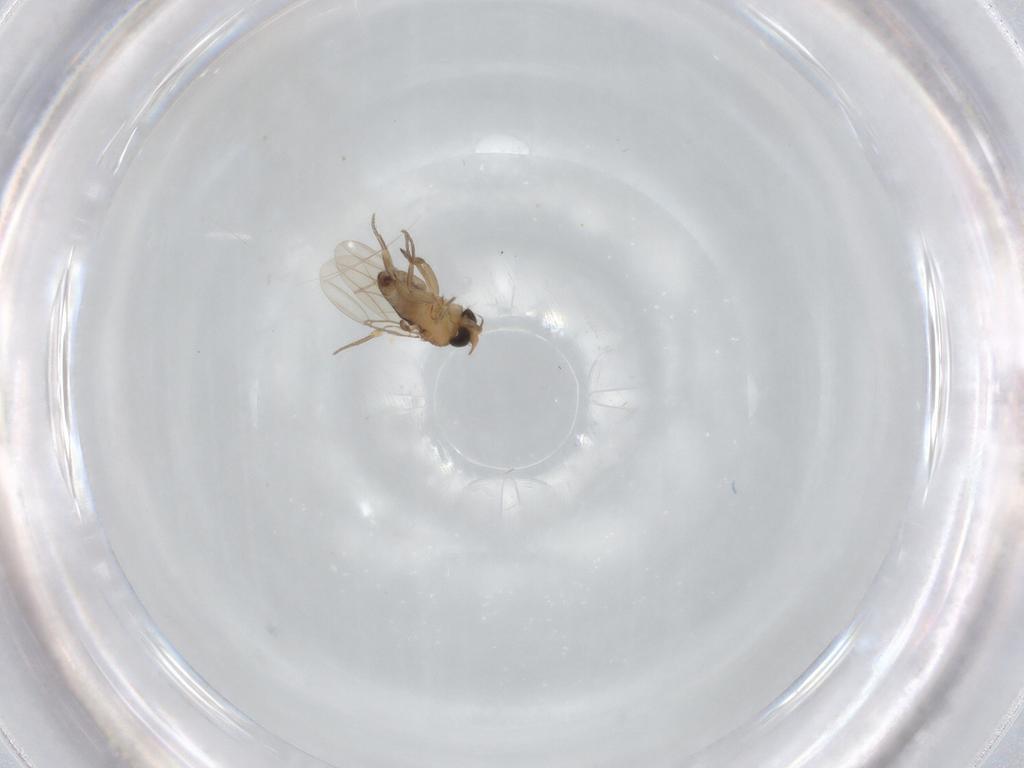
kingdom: Animalia
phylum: Arthropoda
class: Insecta
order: Diptera
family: Phoridae
